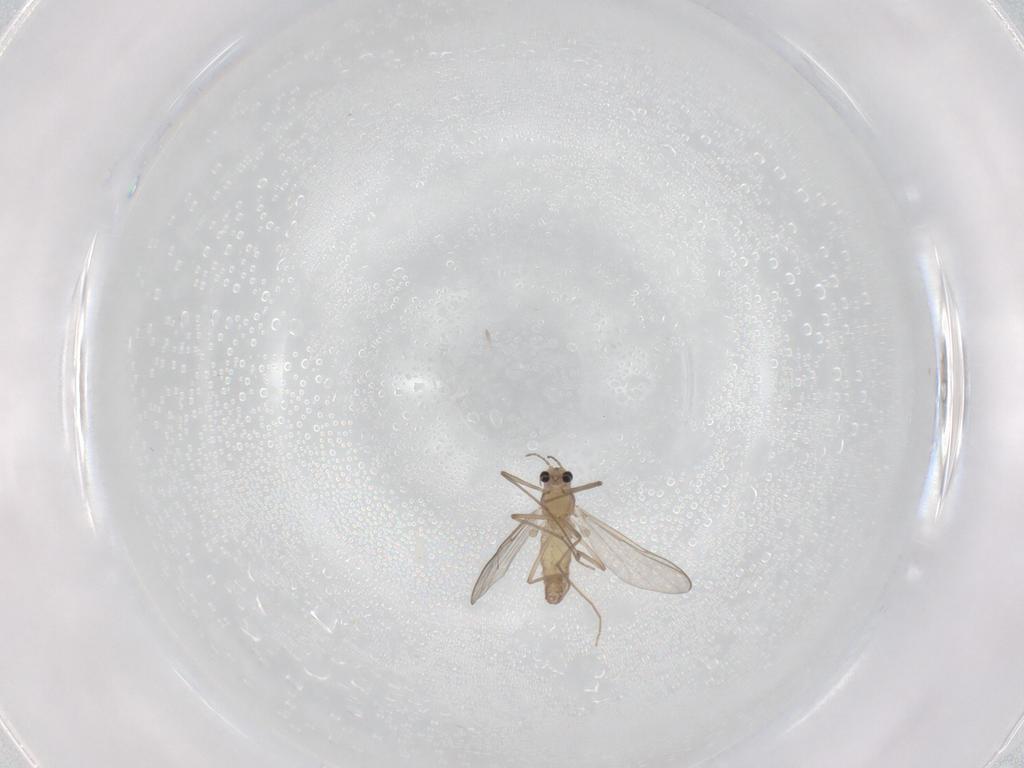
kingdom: Animalia
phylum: Arthropoda
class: Insecta
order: Diptera
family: Chironomidae
